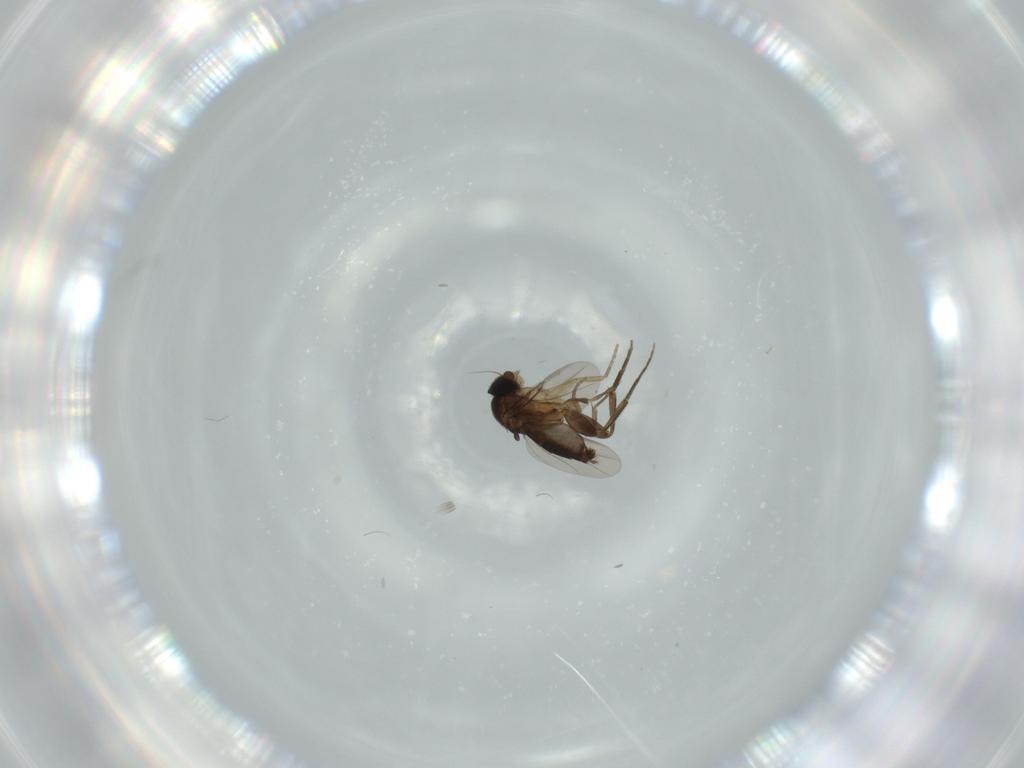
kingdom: Animalia
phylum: Arthropoda
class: Insecta
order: Diptera
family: Phoridae
